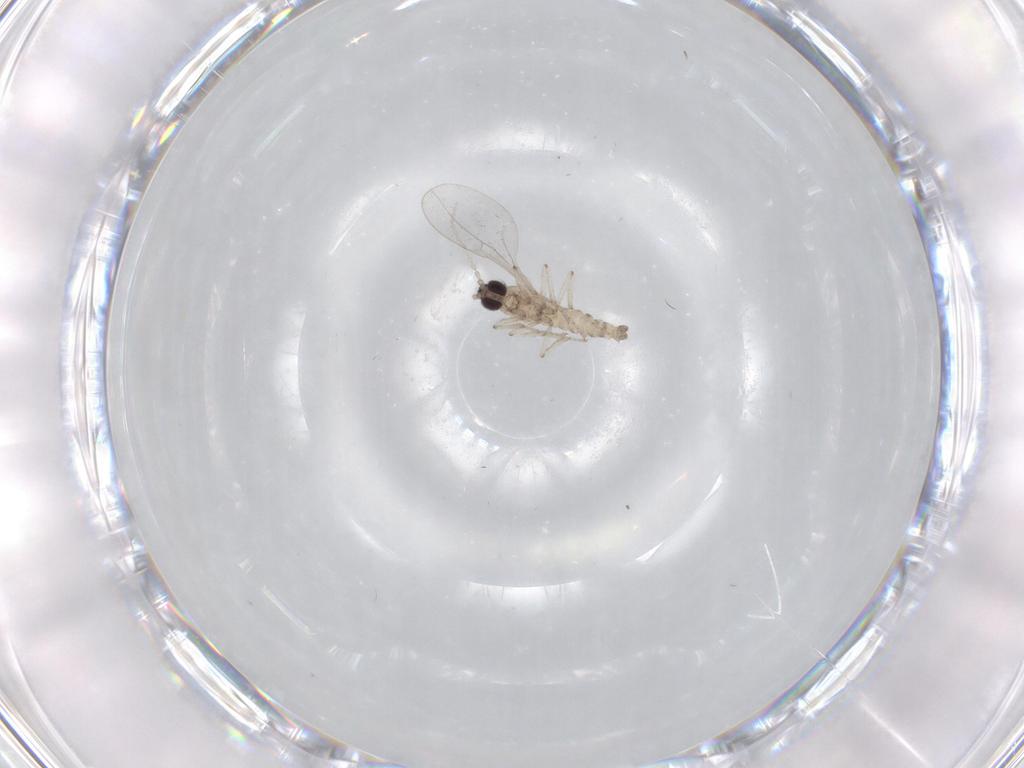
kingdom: Animalia
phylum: Arthropoda
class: Insecta
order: Diptera
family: Cecidomyiidae
